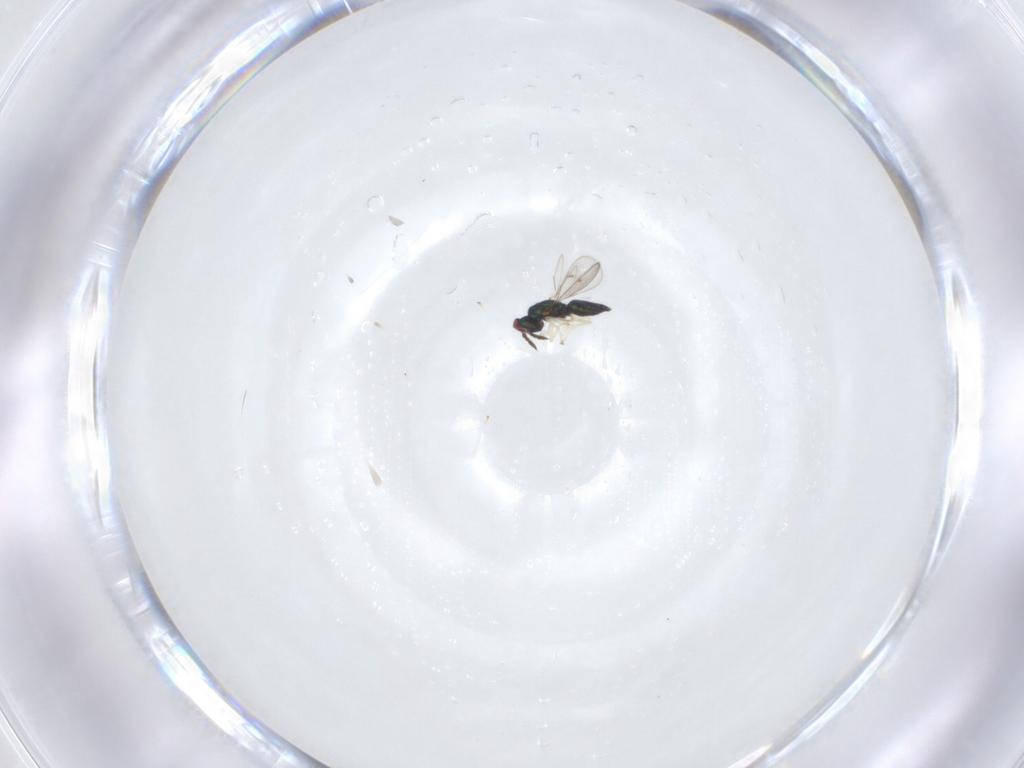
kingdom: Animalia
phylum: Arthropoda
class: Insecta
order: Hymenoptera
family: Eulophidae
